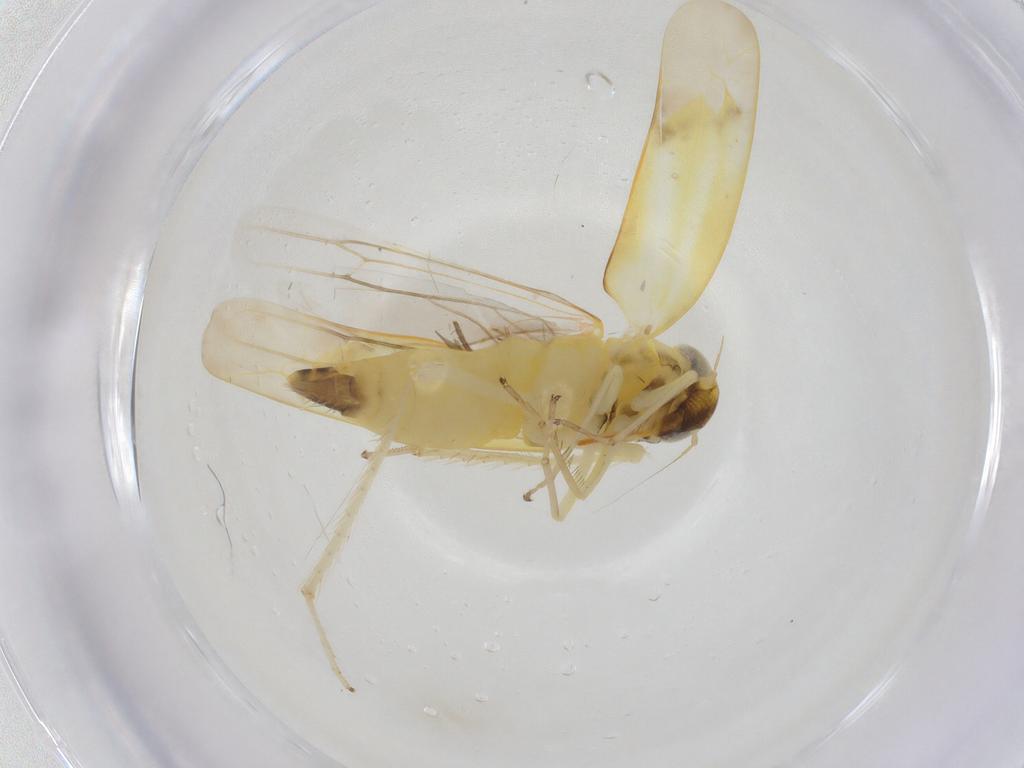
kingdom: Animalia
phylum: Arthropoda
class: Insecta
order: Hemiptera
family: Cicadellidae
